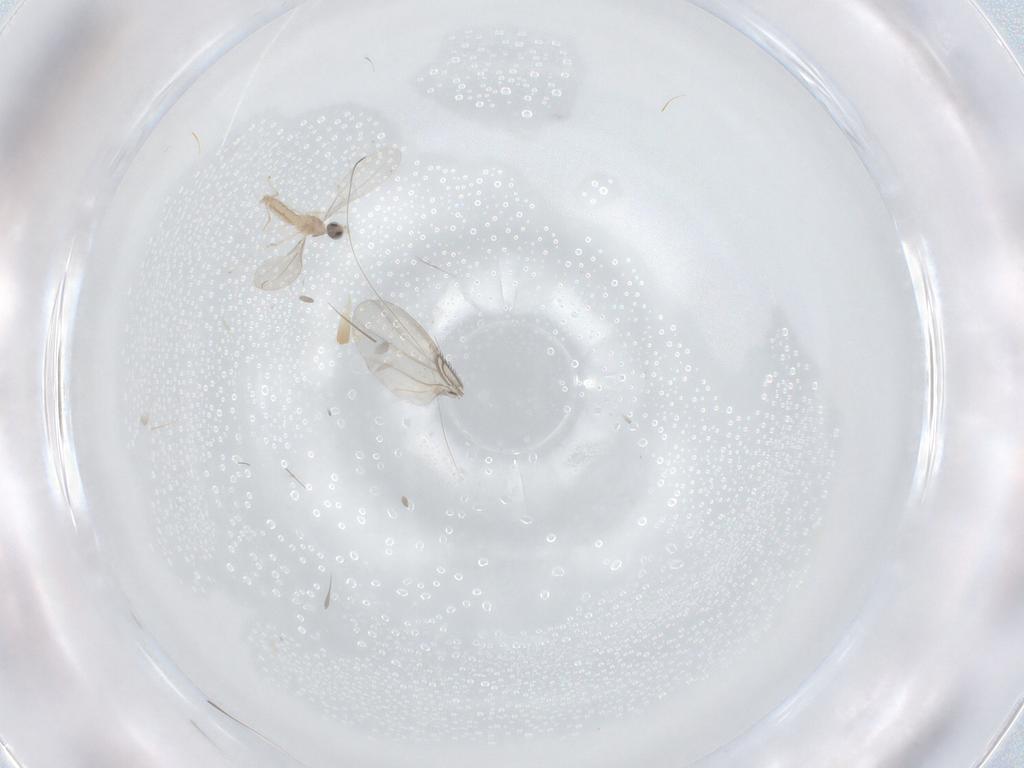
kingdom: Animalia
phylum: Arthropoda
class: Insecta
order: Diptera
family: Cecidomyiidae
